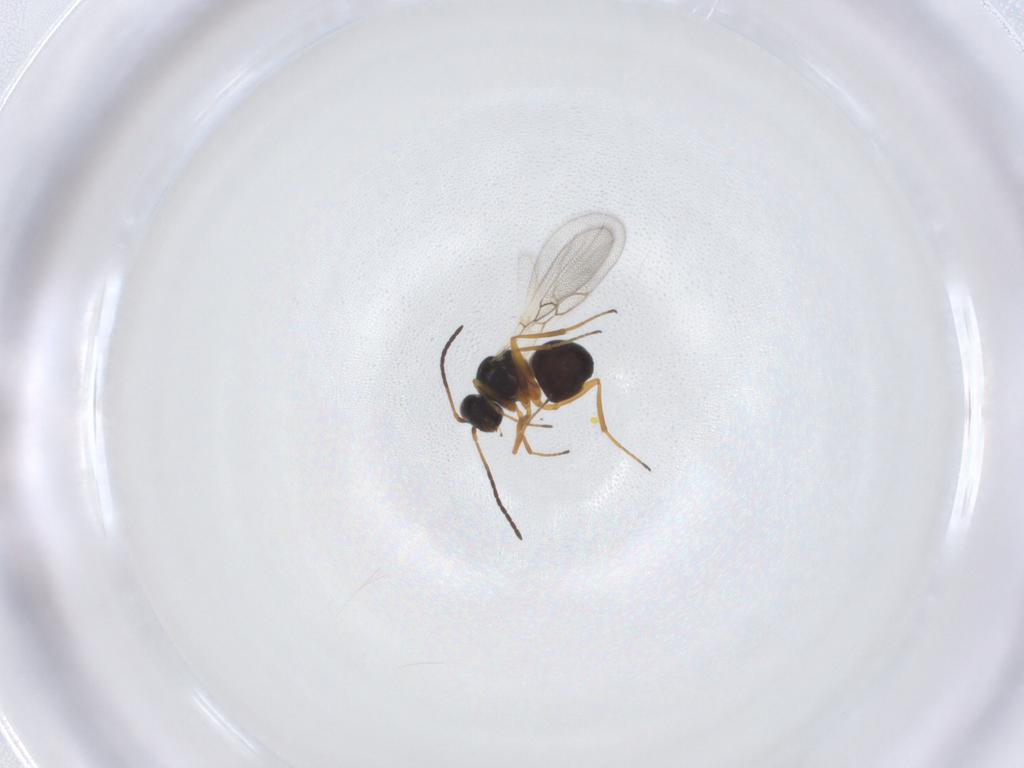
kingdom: Animalia
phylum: Arthropoda
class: Insecta
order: Hymenoptera
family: Figitidae
